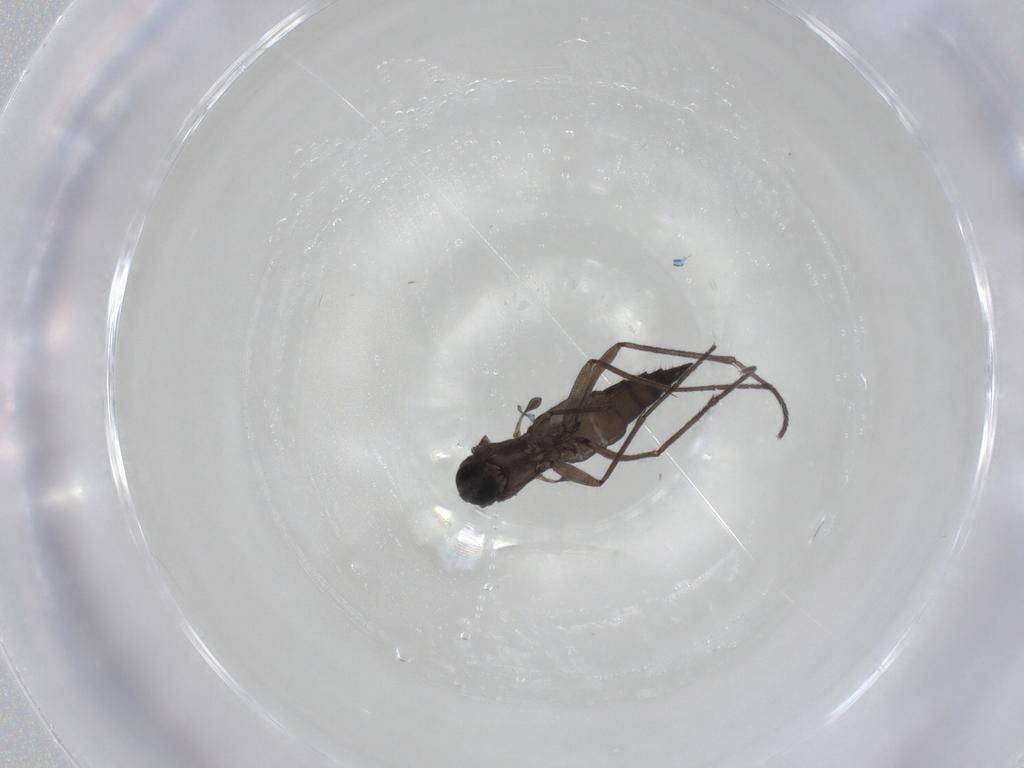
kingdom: Animalia
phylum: Arthropoda
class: Insecta
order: Diptera
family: Sciaridae
